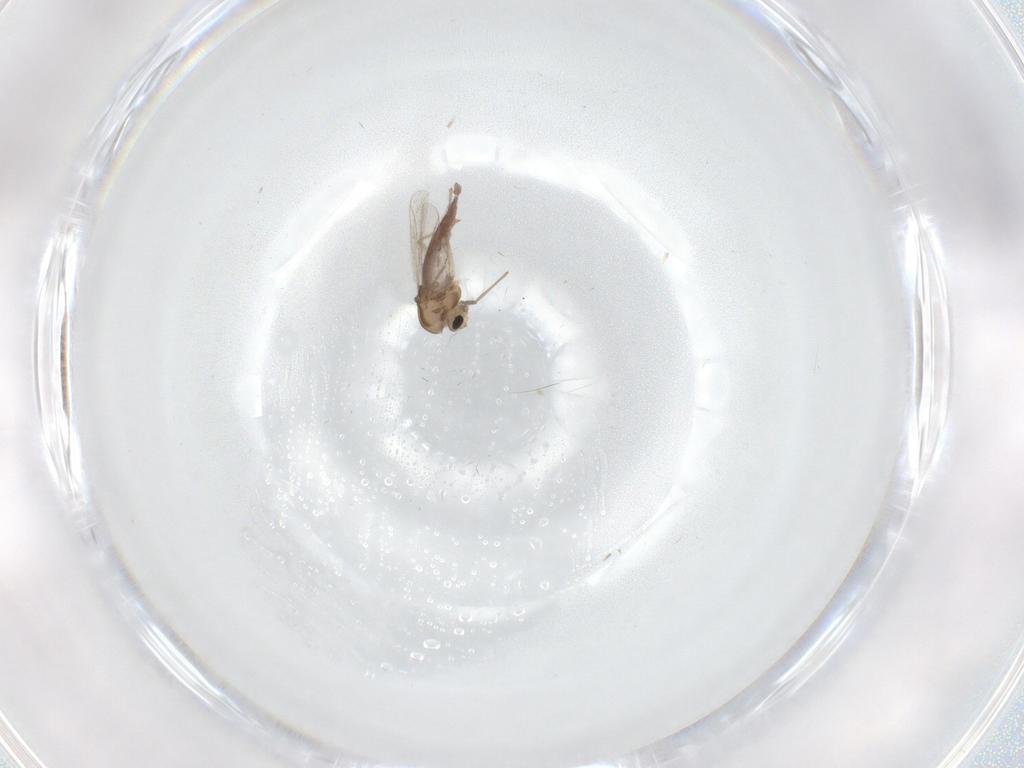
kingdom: Animalia
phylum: Arthropoda
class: Insecta
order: Diptera
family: Chironomidae
